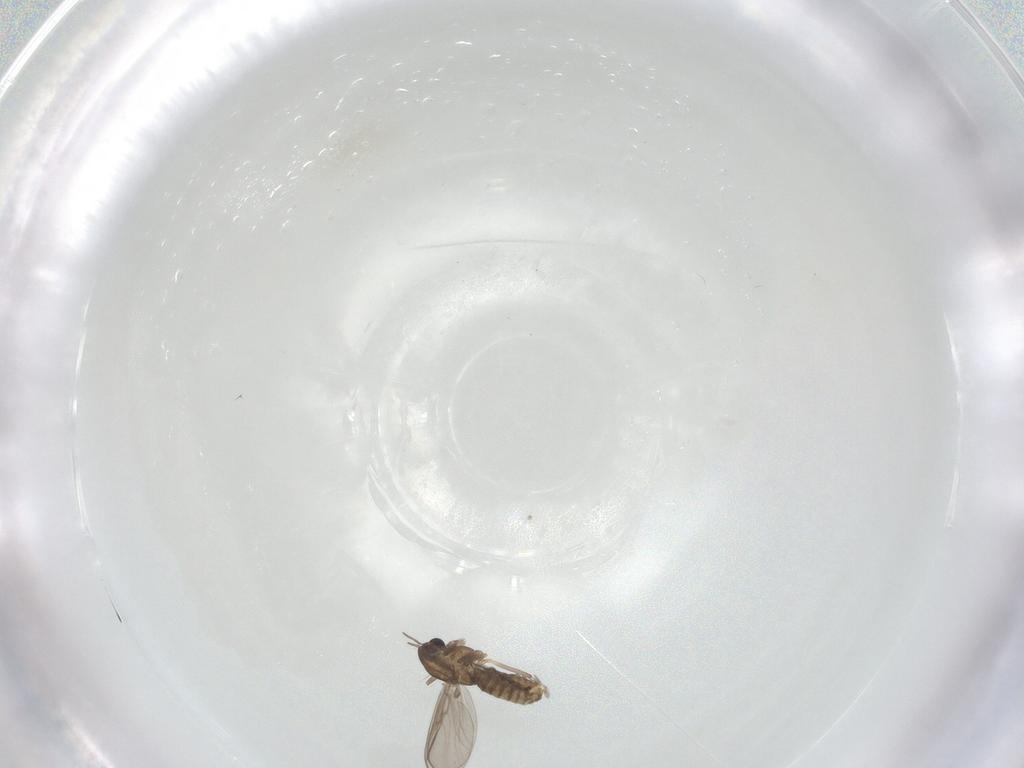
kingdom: Animalia
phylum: Arthropoda
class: Insecta
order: Diptera
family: Chironomidae
